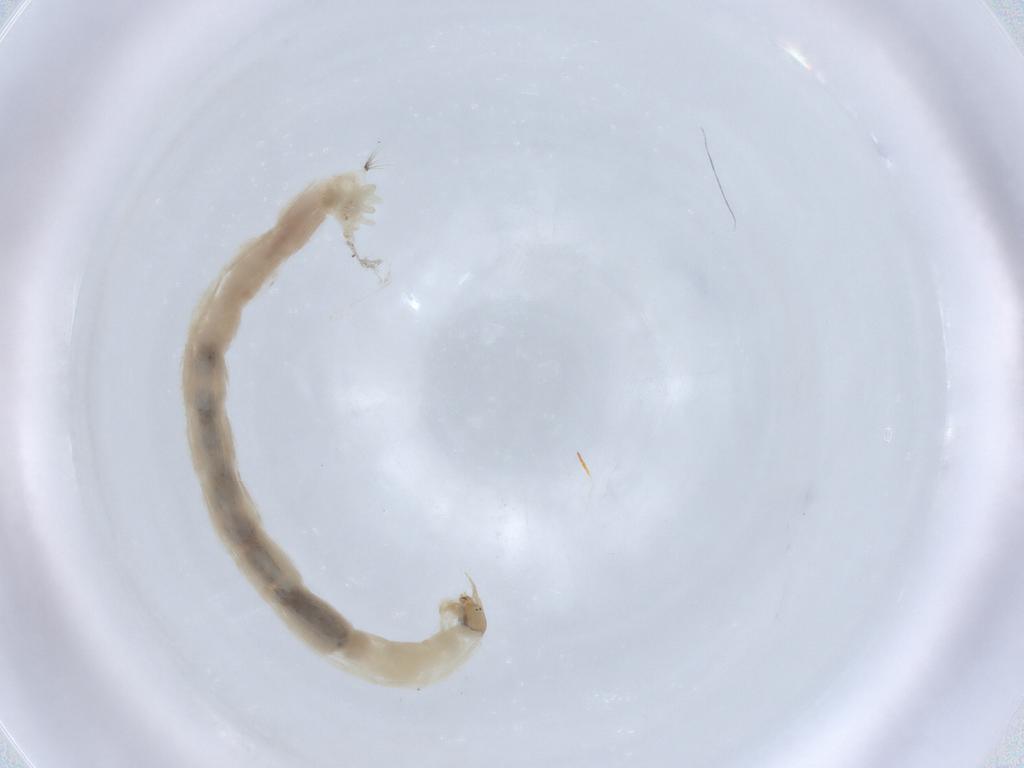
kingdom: Animalia
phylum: Arthropoda
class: Insecta
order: Diptera
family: Chironomidae
